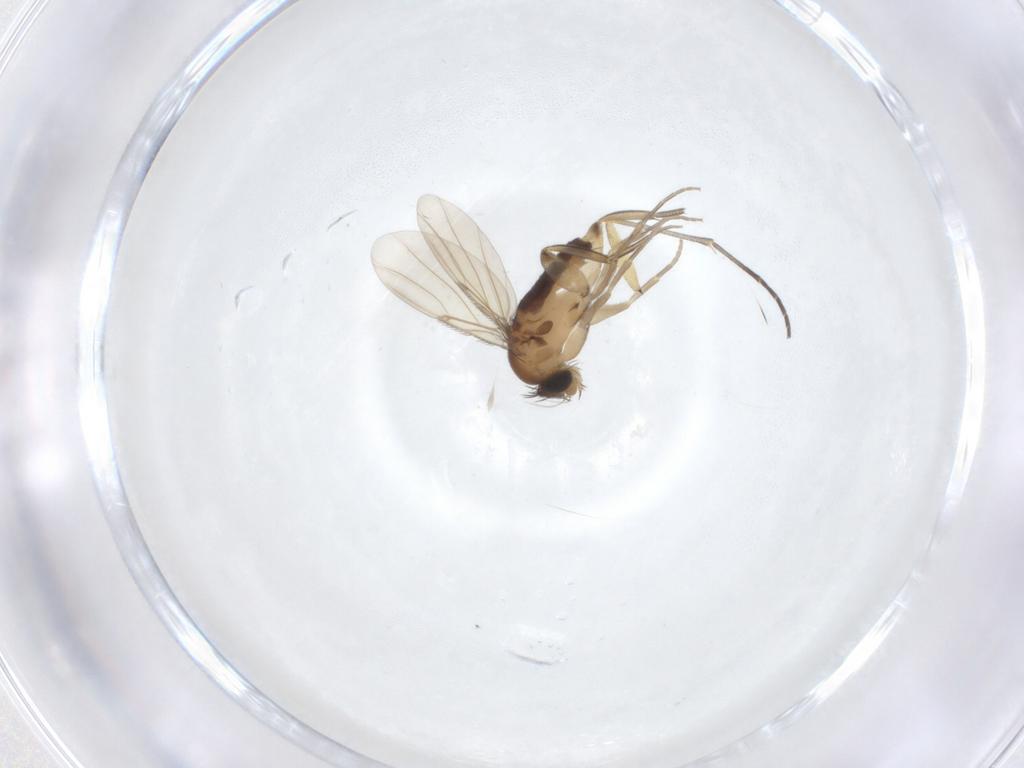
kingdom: Animalia
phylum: Arthropoda
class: Insecta
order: Diptera
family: Phoridae
